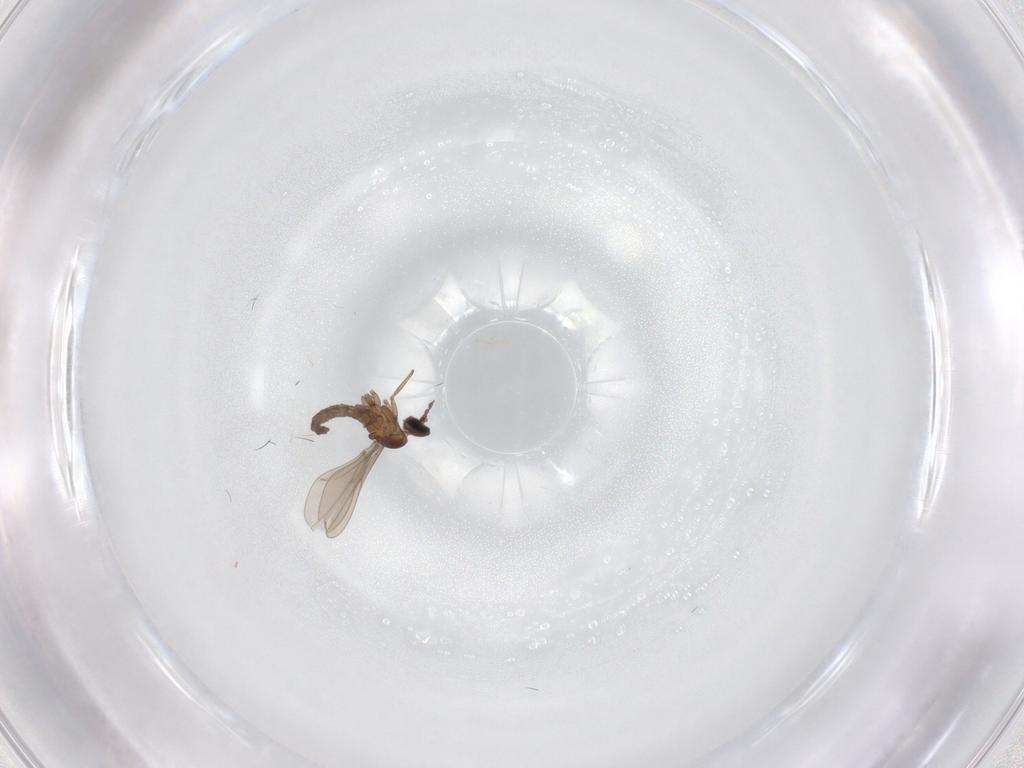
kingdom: Animalia
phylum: Arthropoda
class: Insecta
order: Diptera
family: Cecidomyiidae
